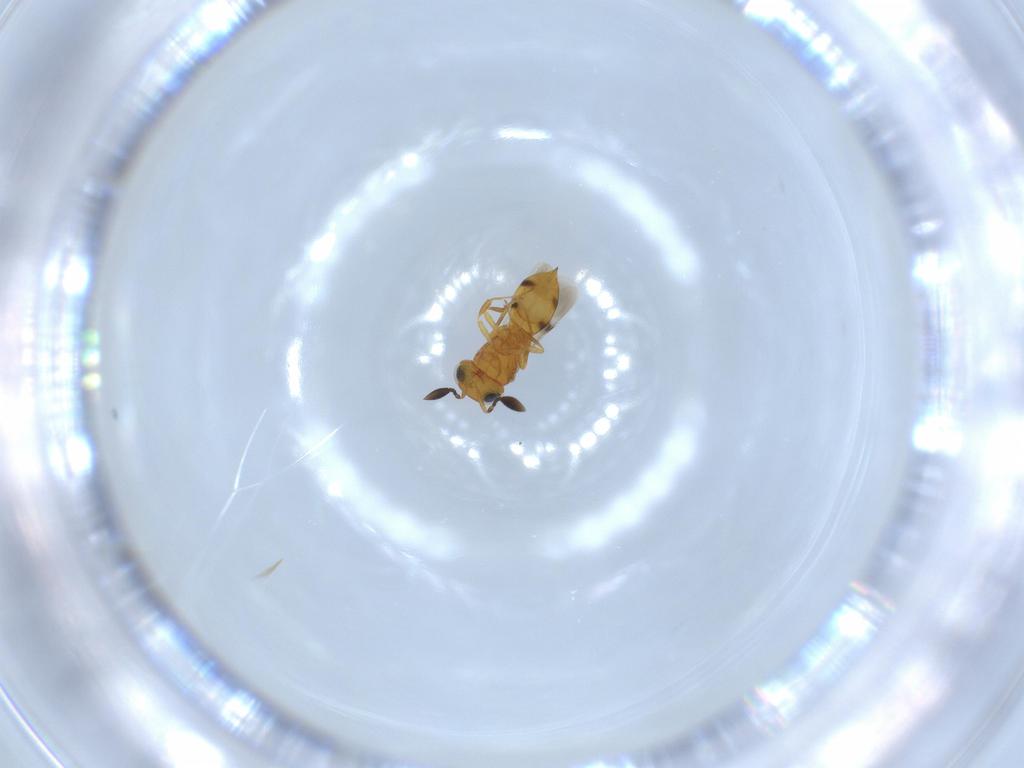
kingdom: Animalia
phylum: Arthropoda
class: Insecta
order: Hymenoptera
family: Scelionidae
